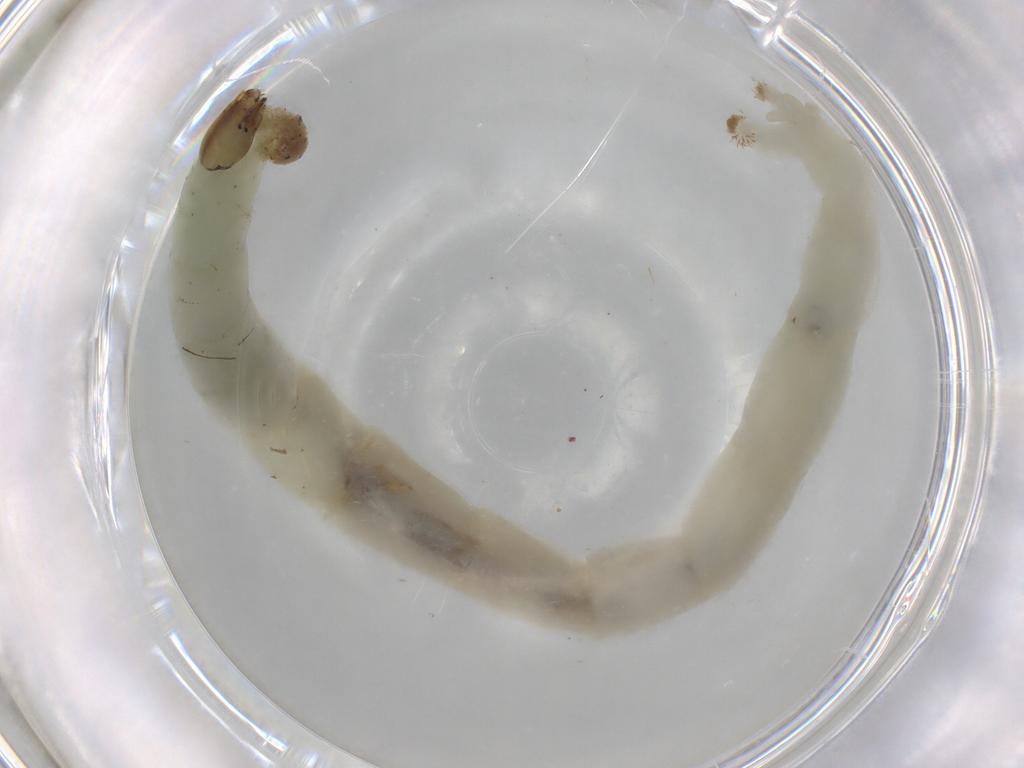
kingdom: Animalia
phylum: Arthropoda
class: Insecta
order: Diptera
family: Chironomidae
